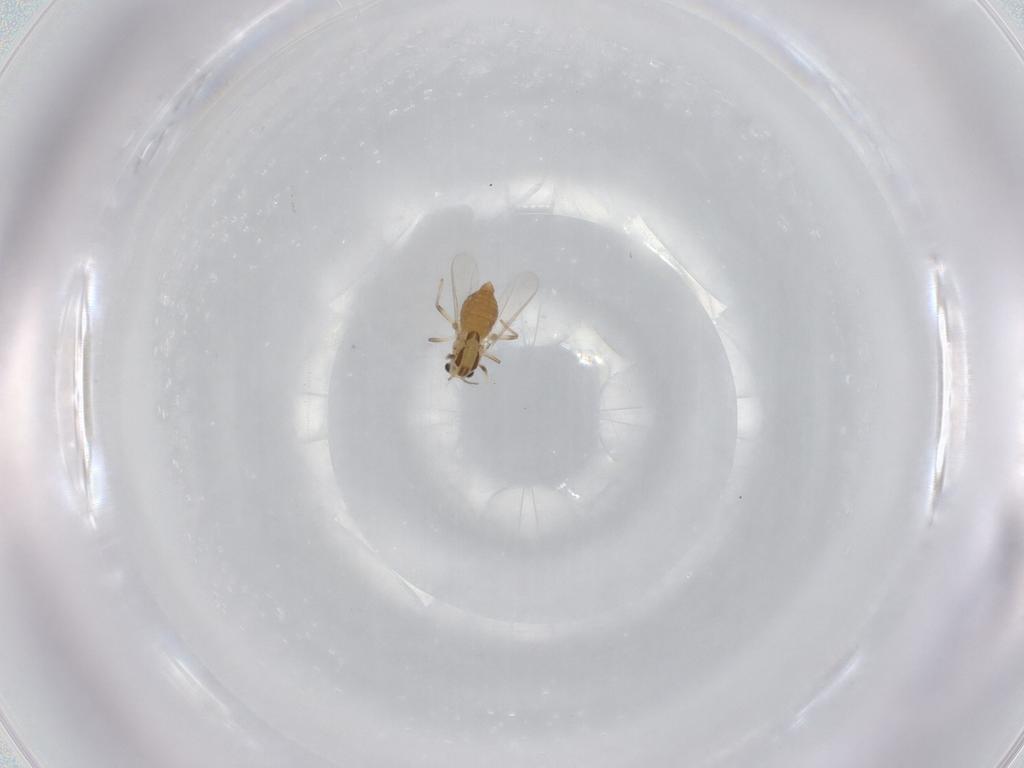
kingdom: Animalia
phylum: Arthropoda
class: Insecta
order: Diptera
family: Chironomidae
